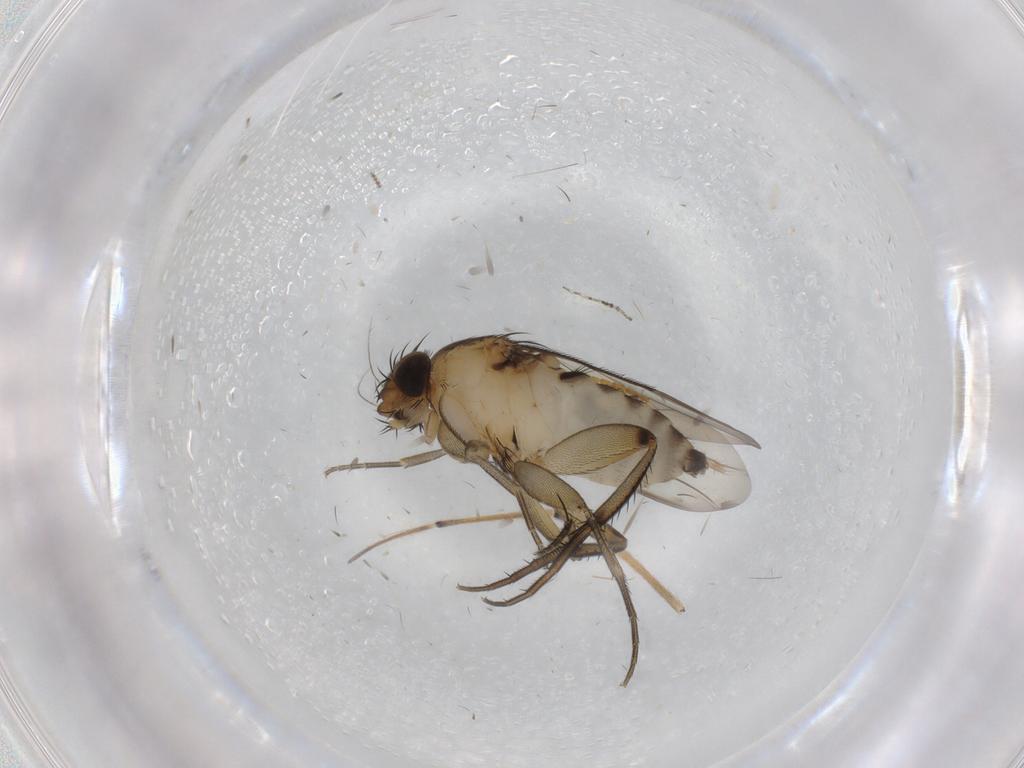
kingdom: Animalia
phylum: Arthropoda
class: Insecta
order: Diptera
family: Phoridae
